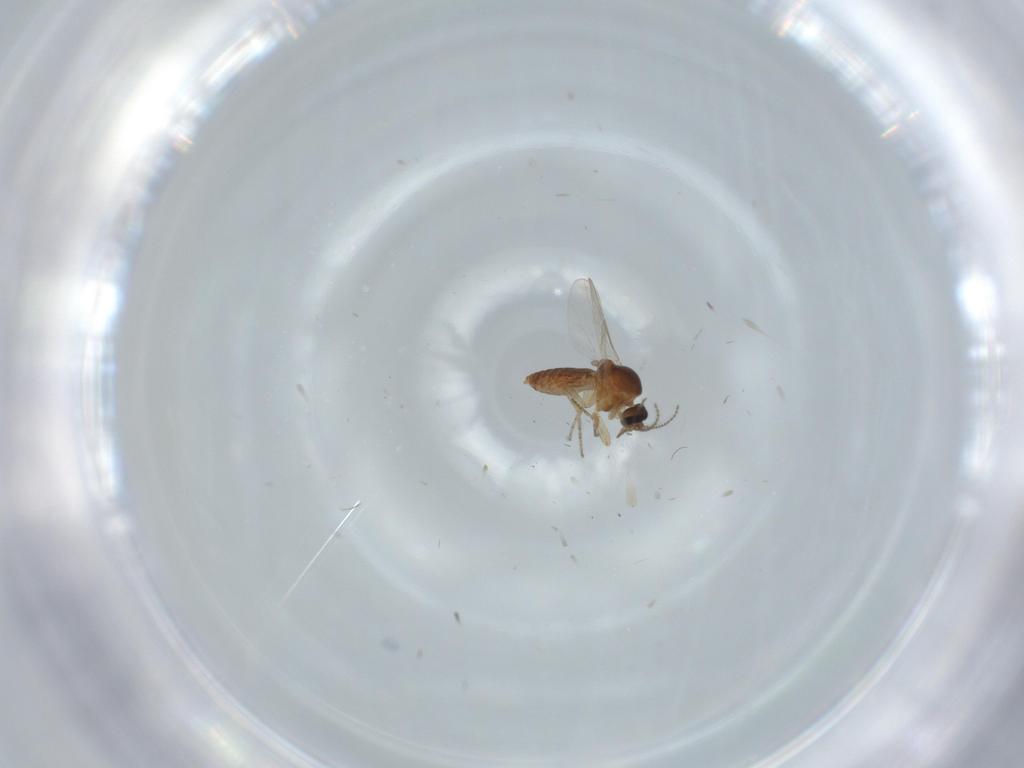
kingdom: Animalia
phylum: Arthropoda
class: Insecta
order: Diptera
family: Ceratopogonidae
